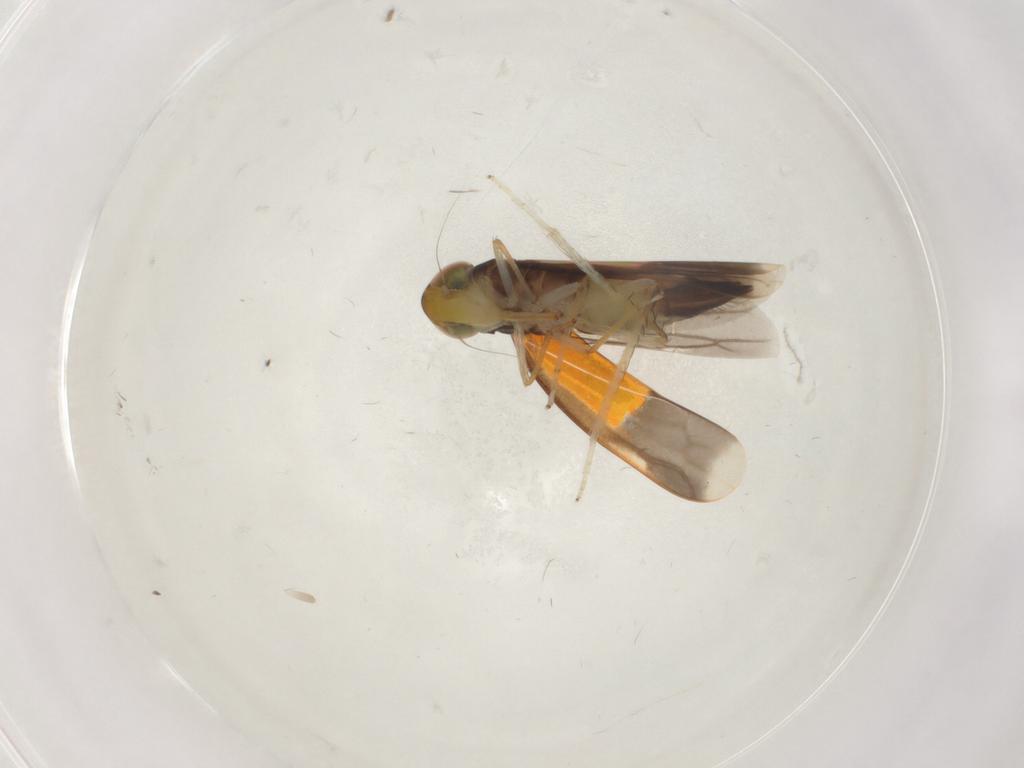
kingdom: Animalia
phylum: Arthropoda
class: Insecta
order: Hemiptera
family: Cicadellidae
